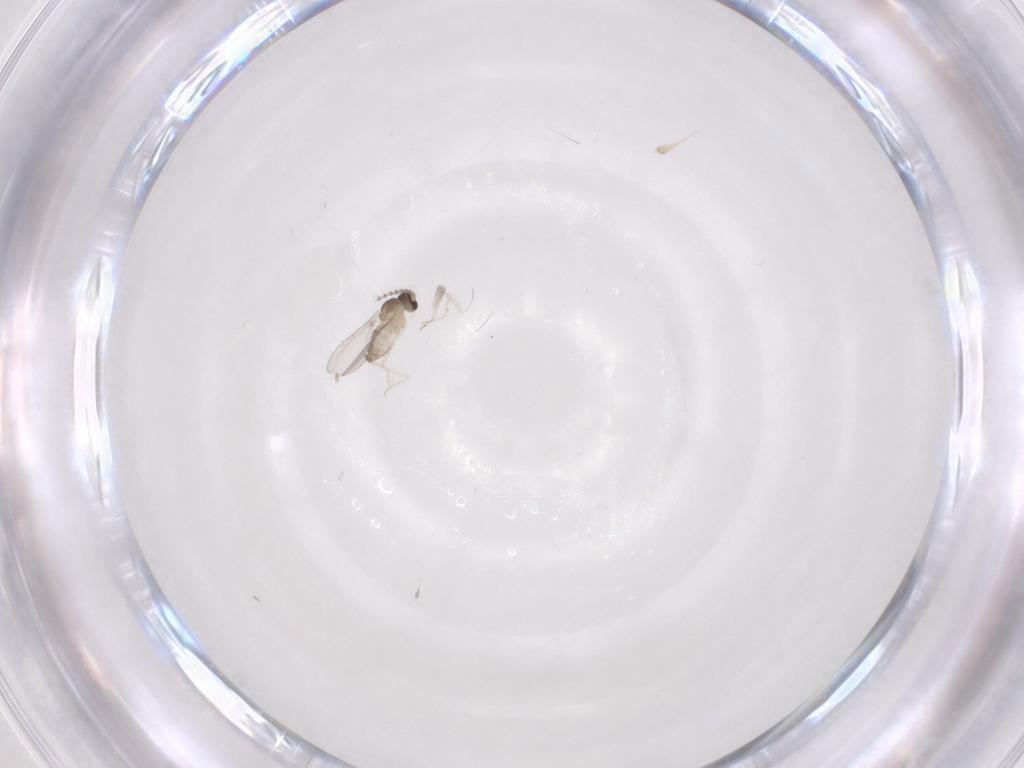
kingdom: Animalia
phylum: Arthropoda
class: Insecta
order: Diptera
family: Cecidomyiidae
